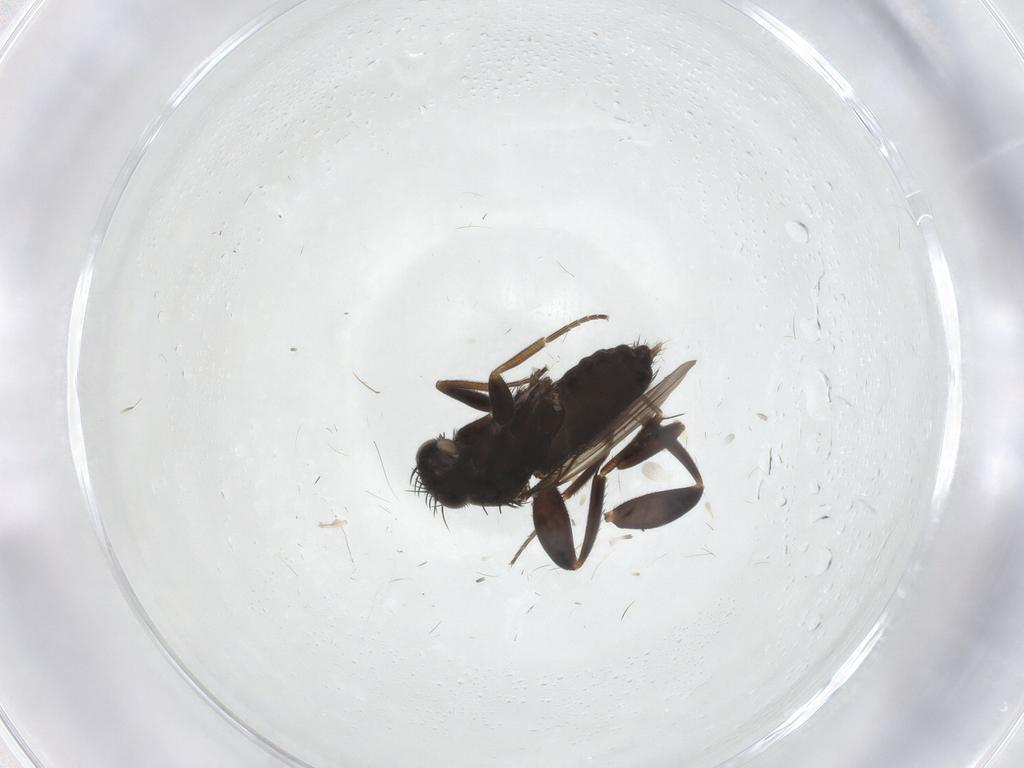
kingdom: Animalia
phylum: Arthropoda
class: Insecta
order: Diptera
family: Phoridae
